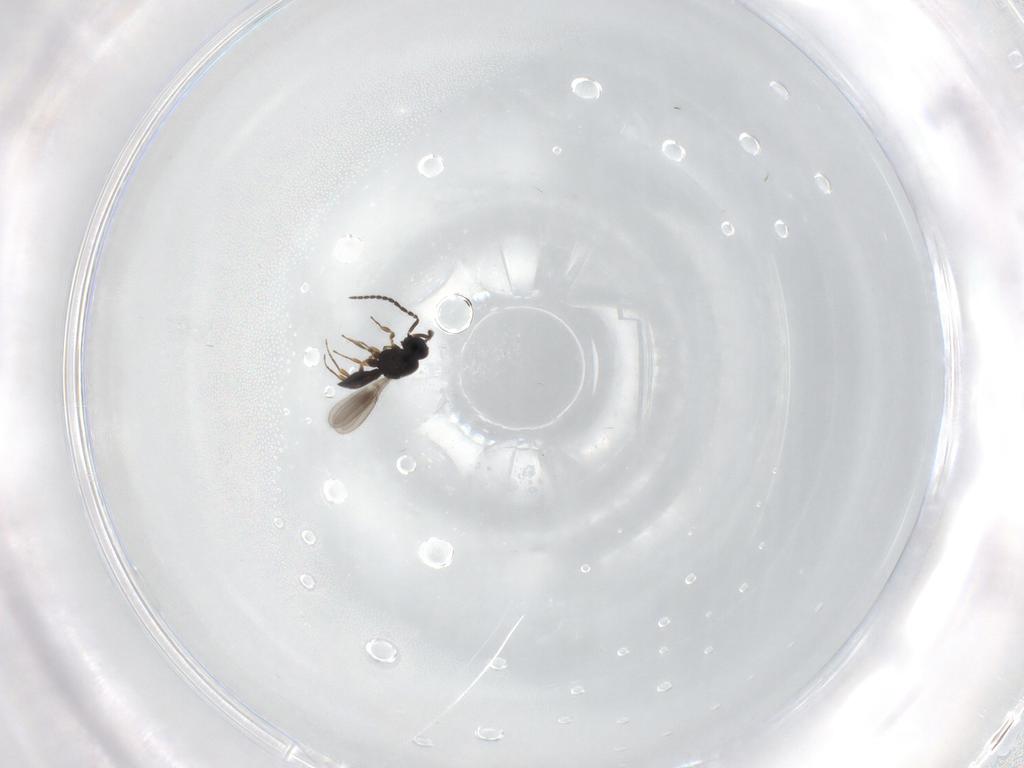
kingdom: Animalia
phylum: Arthropoda
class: Insecta
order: Hymenoptera
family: Scelionidae
